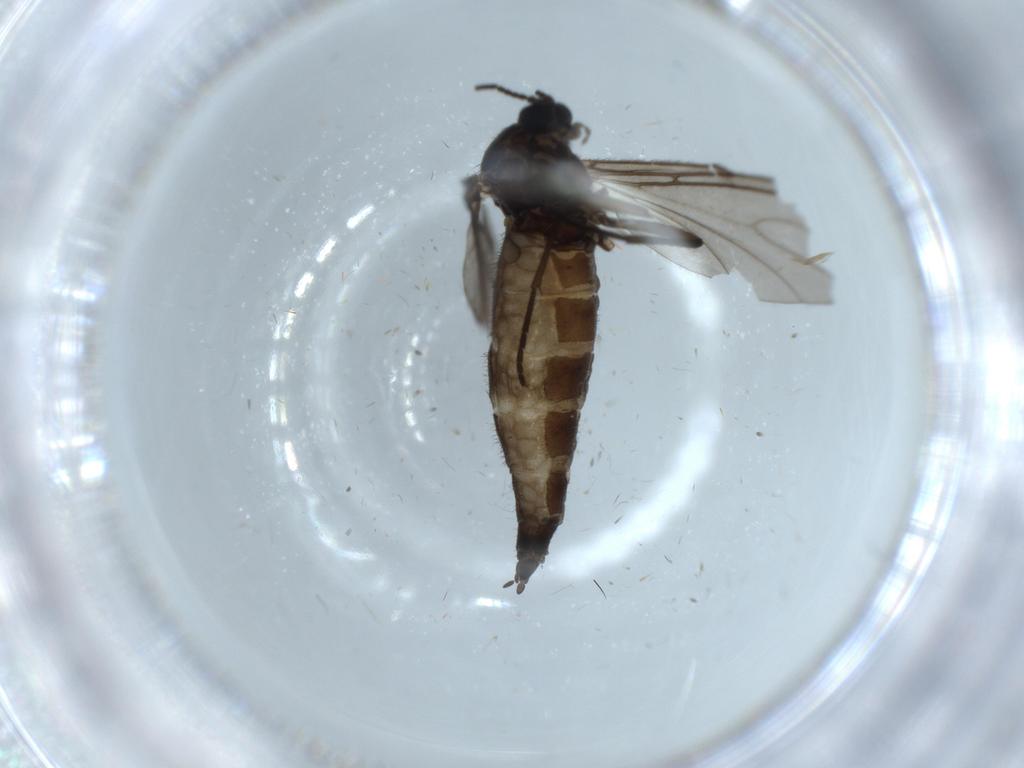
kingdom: Animalia
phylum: Arthropoda
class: Insecta
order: Diptera
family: Sciaridae
